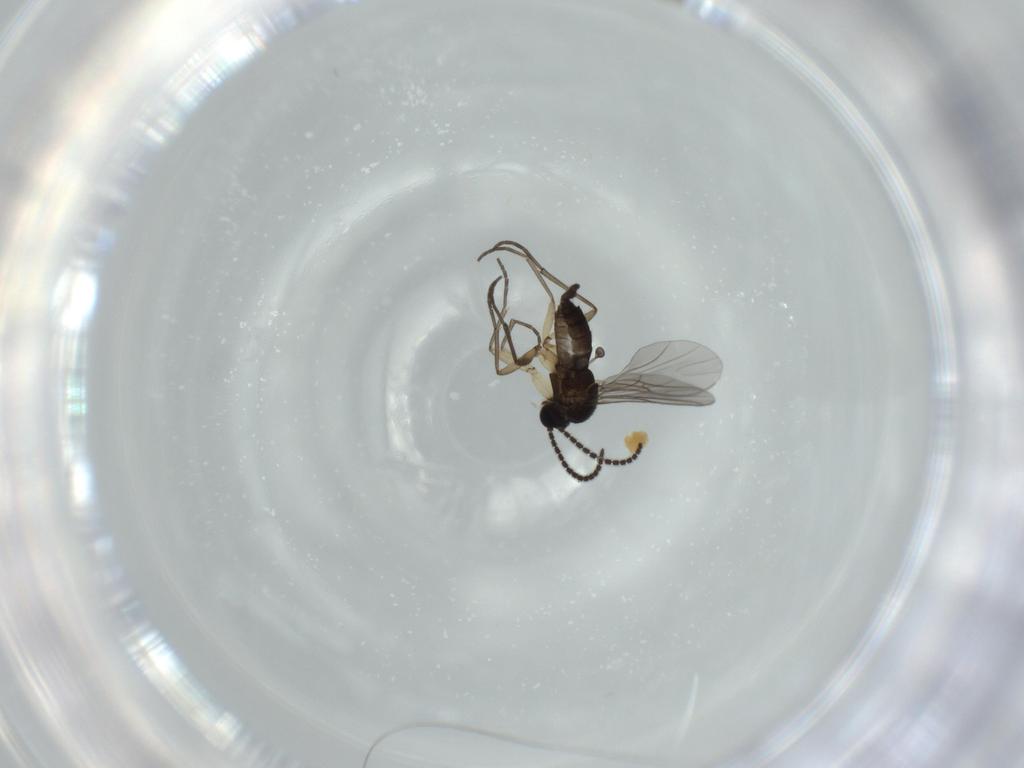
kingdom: Animalia
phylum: Arthropoda
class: Insecta
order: Diptera
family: Sciaridae
